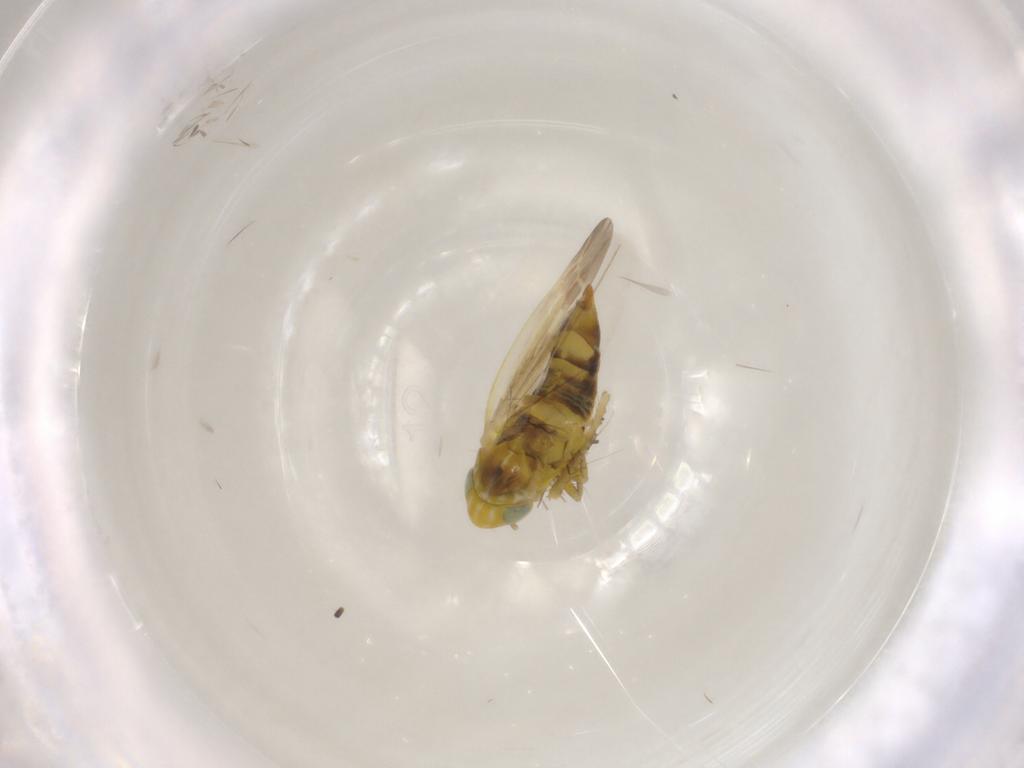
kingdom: Animalia
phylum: Arthropoda
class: Insecta
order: Hemiptera
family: Cicadellidae
